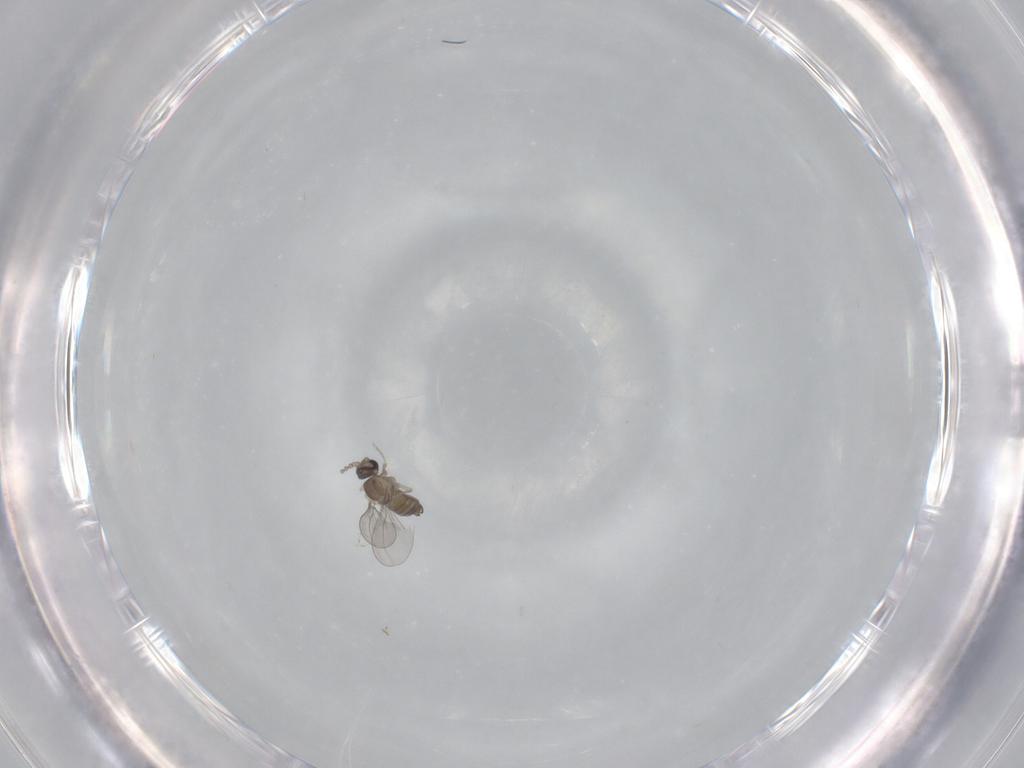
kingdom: Animalia
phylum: Arthropoda
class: Insecta
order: Diptera
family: Cecidomyiidae
